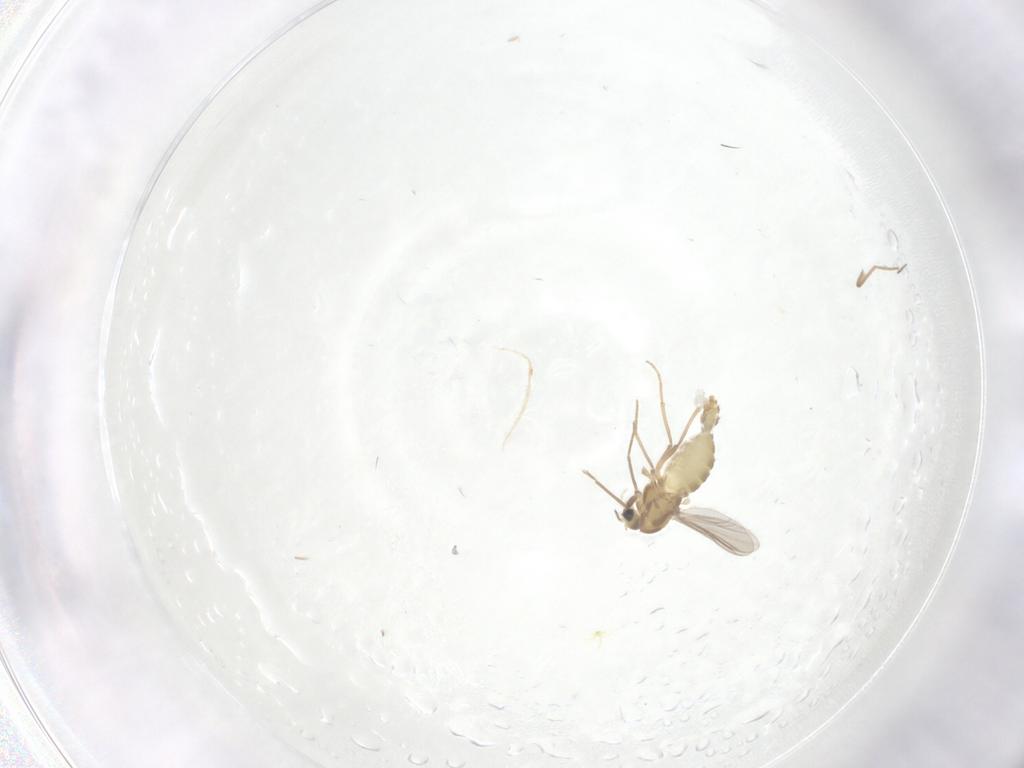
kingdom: Animalia
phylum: Arthropoda
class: Insecta
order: Diptera
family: Chironomidae
